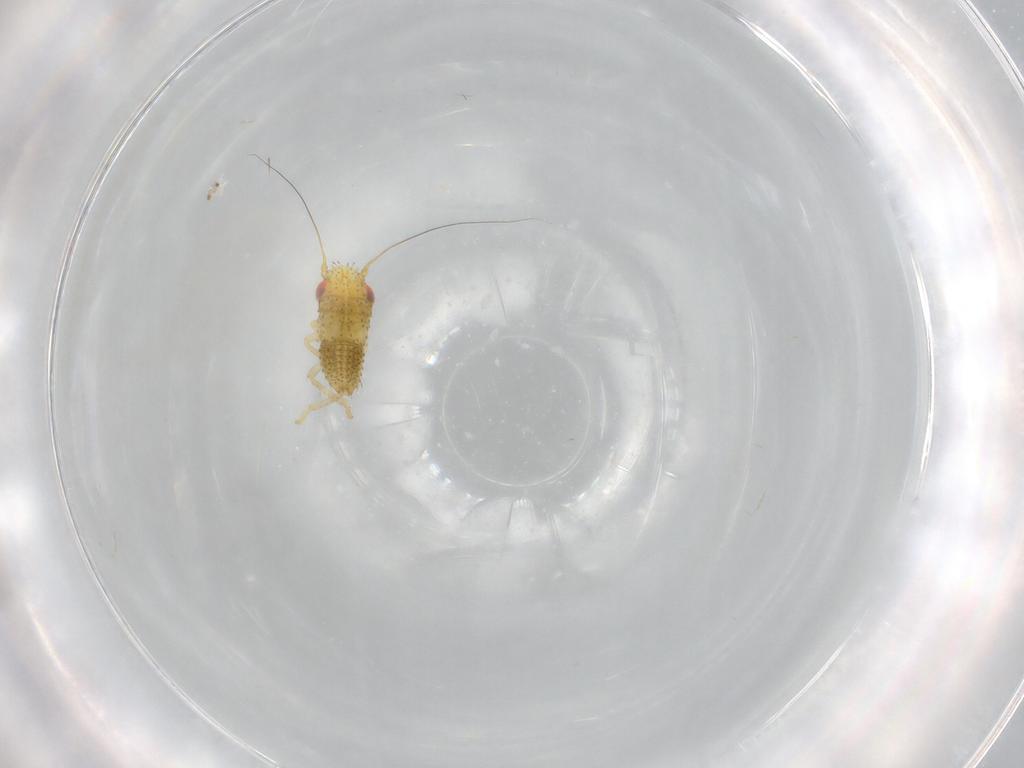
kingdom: Animalia
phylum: Arthropoda
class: Insecta
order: Hemiptera
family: Cicadellidae
